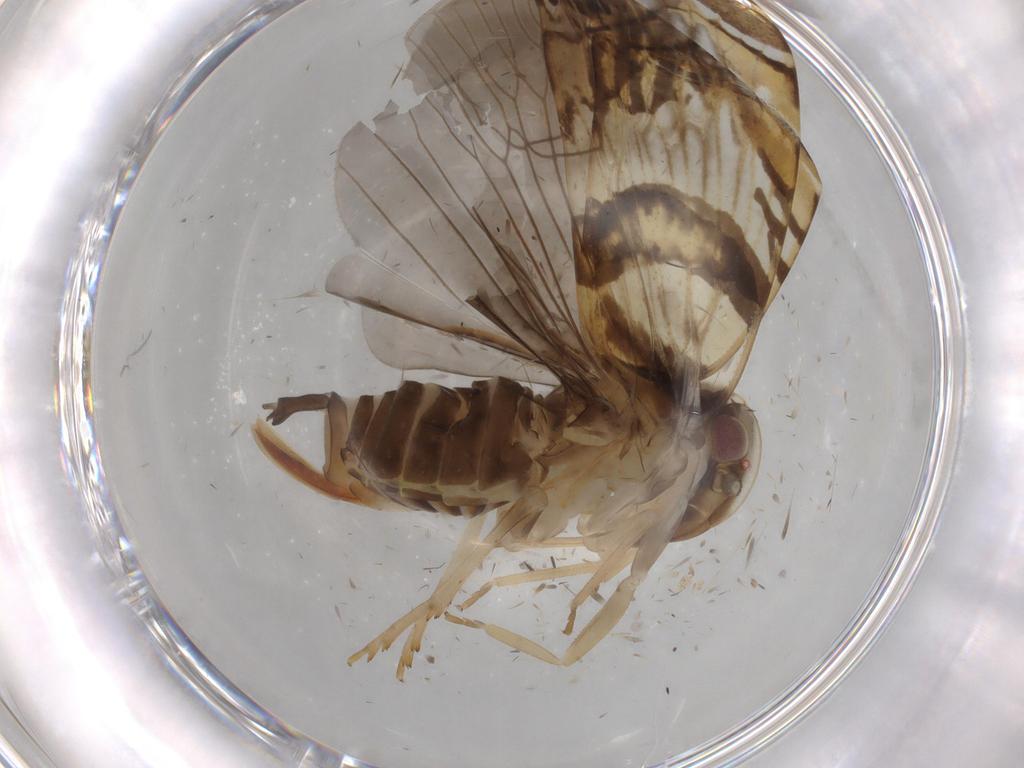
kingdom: Animalia
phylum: Arthropoda
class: Insecta
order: Hemiptera
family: Cixiidae
